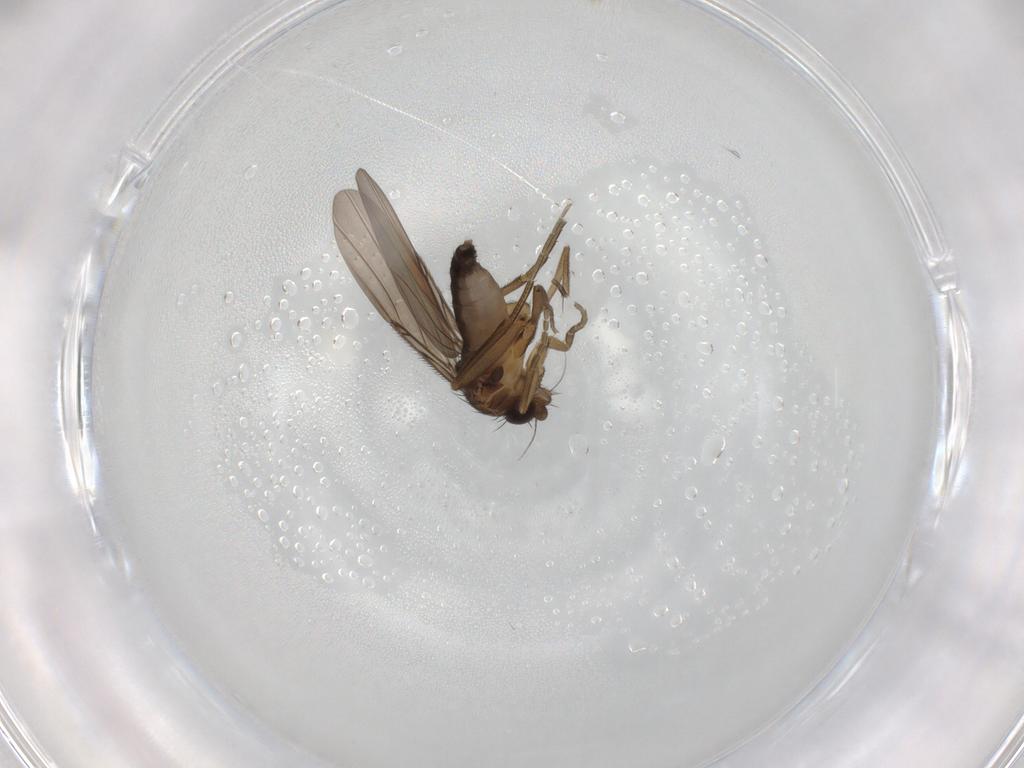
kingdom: Animalia
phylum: Arthropoda
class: Insecta
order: Diptera
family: Phoridae
